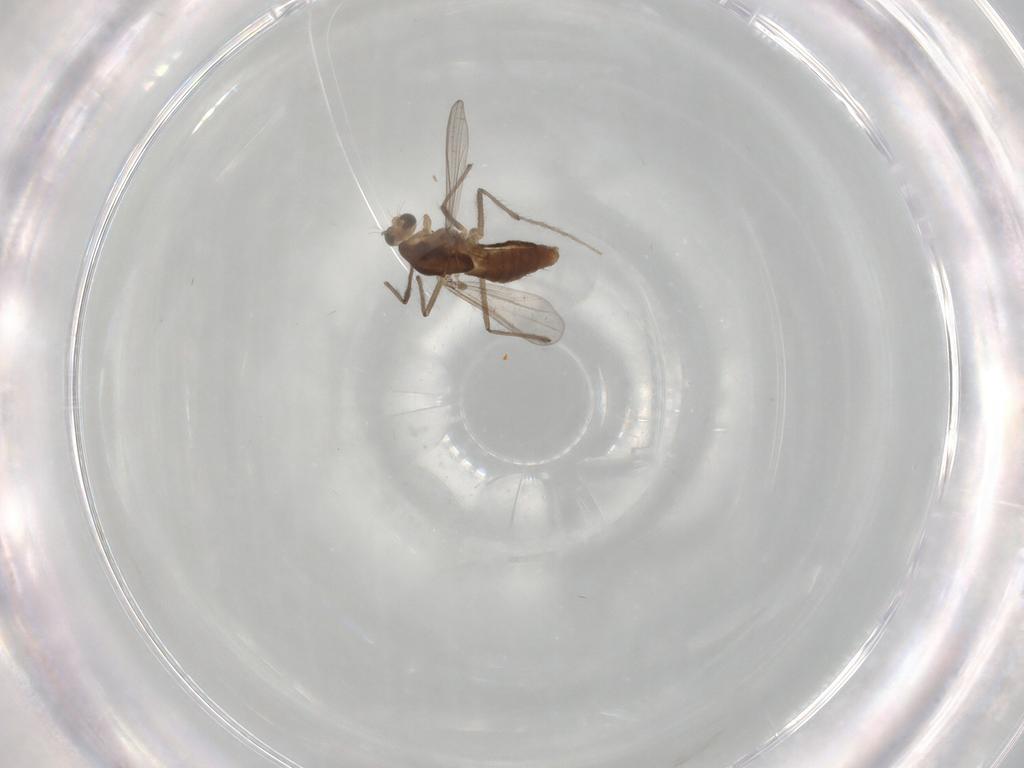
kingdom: Animalia
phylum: Arthropoda
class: Insecta
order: Diptera
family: Chironomidae
